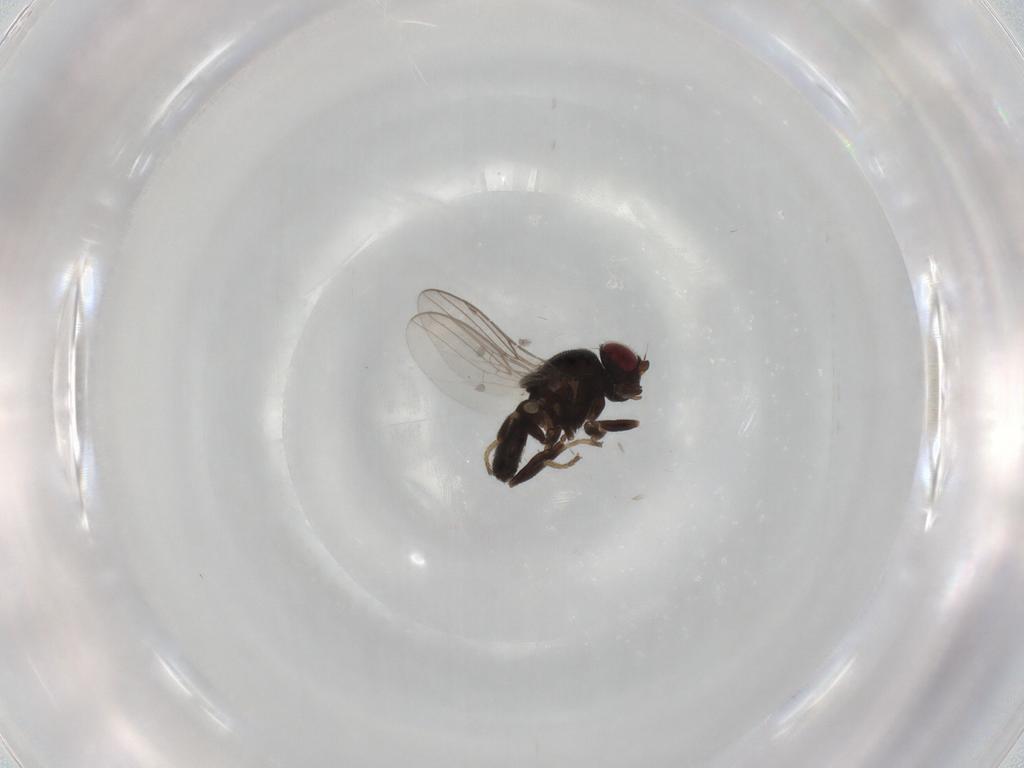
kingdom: Animalia
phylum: Arthropoda
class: Insecta
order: Diptera
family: Chloropidae
